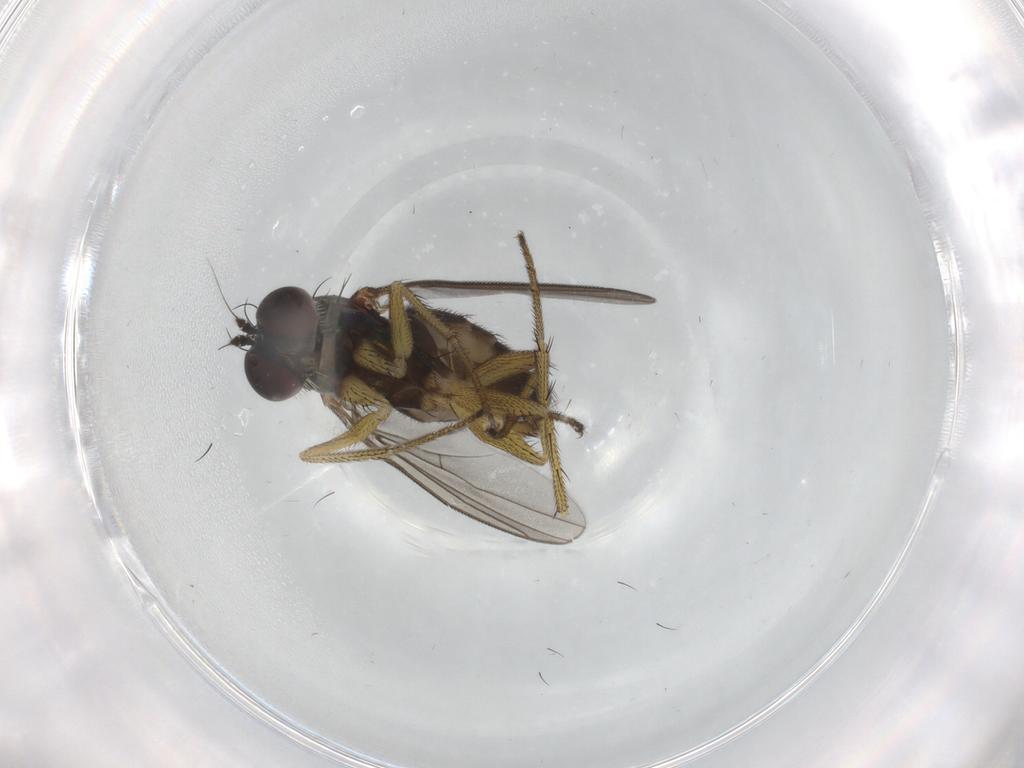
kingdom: Animalia
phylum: Arthropoda
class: Insecta
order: Diptera
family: Dolichopodidae
